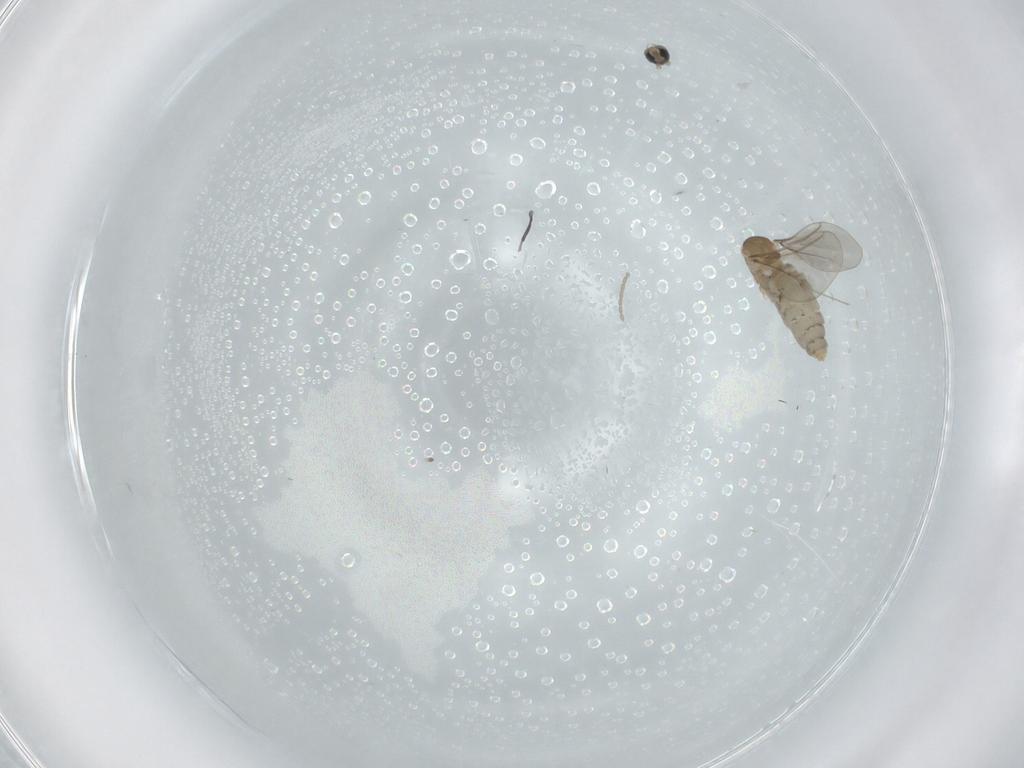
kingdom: Animalia
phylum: Arthropoda
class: Insecta
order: Diptera
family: Cecidomyiidae
